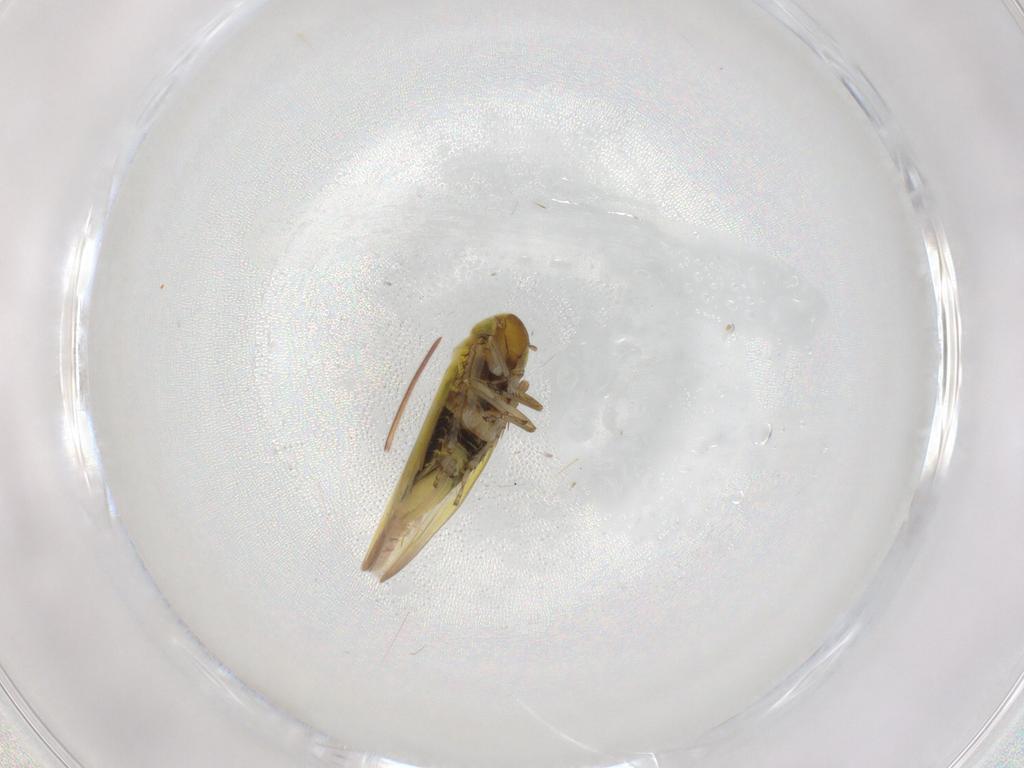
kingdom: Animalia
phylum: Arthropoda
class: Insecta
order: Hemiptera
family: Cicadellidae
